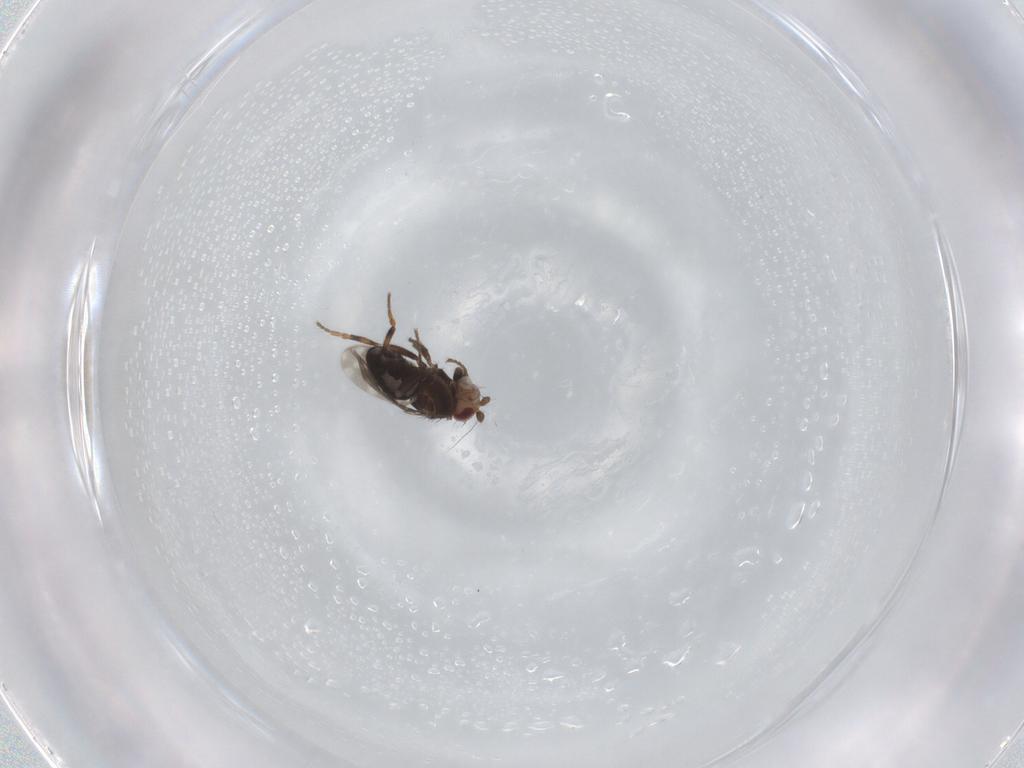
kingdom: Animalia
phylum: Arthropoda
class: Insecta
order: Diptera
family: Sphaeroceridae
